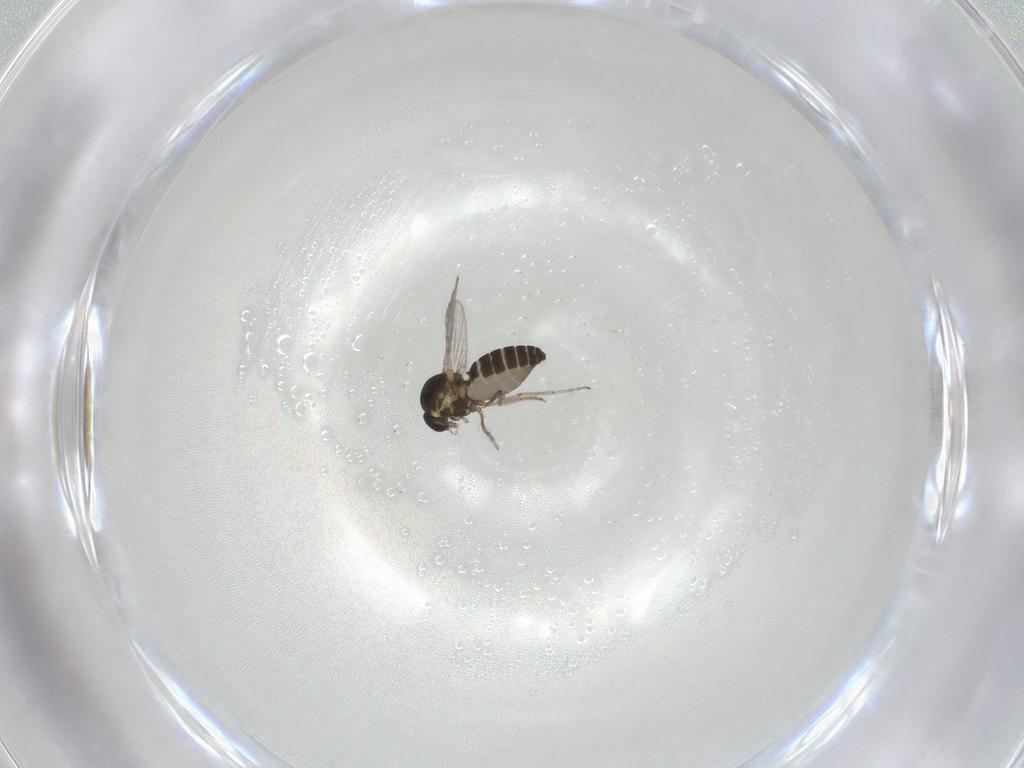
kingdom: Animalia
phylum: Arthropoda
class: Insecta
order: Diptera
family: Ceratopogonidae
